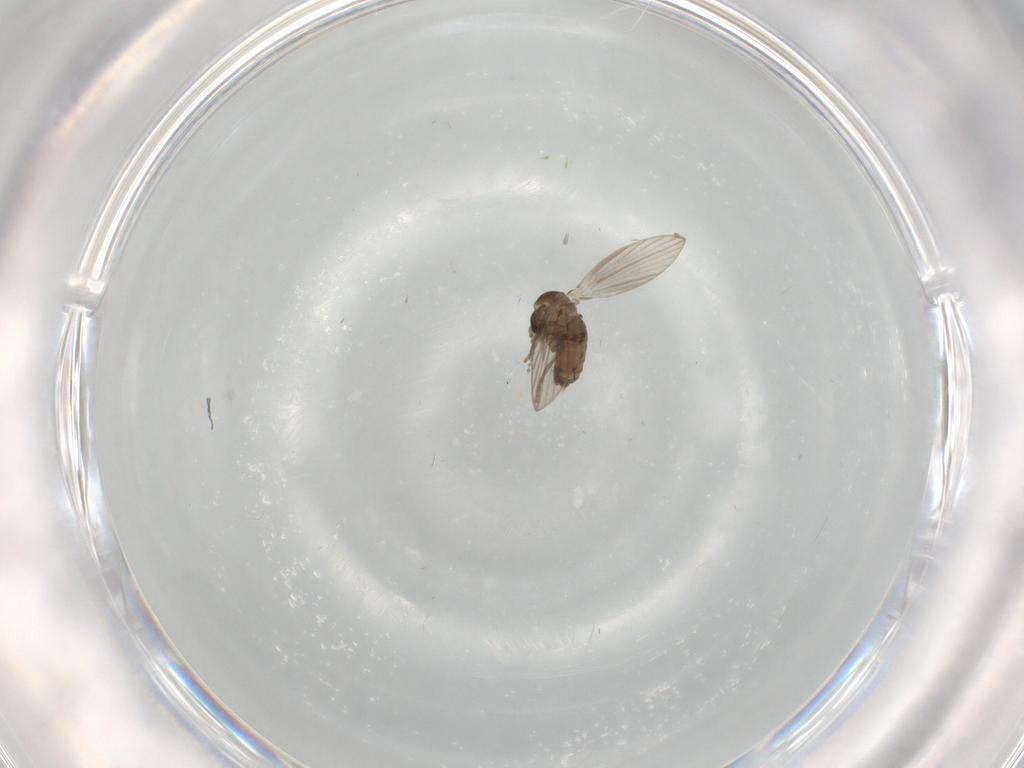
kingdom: Animalia
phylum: Arthropoda
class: Insecta
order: Diptera
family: Psychodidae
